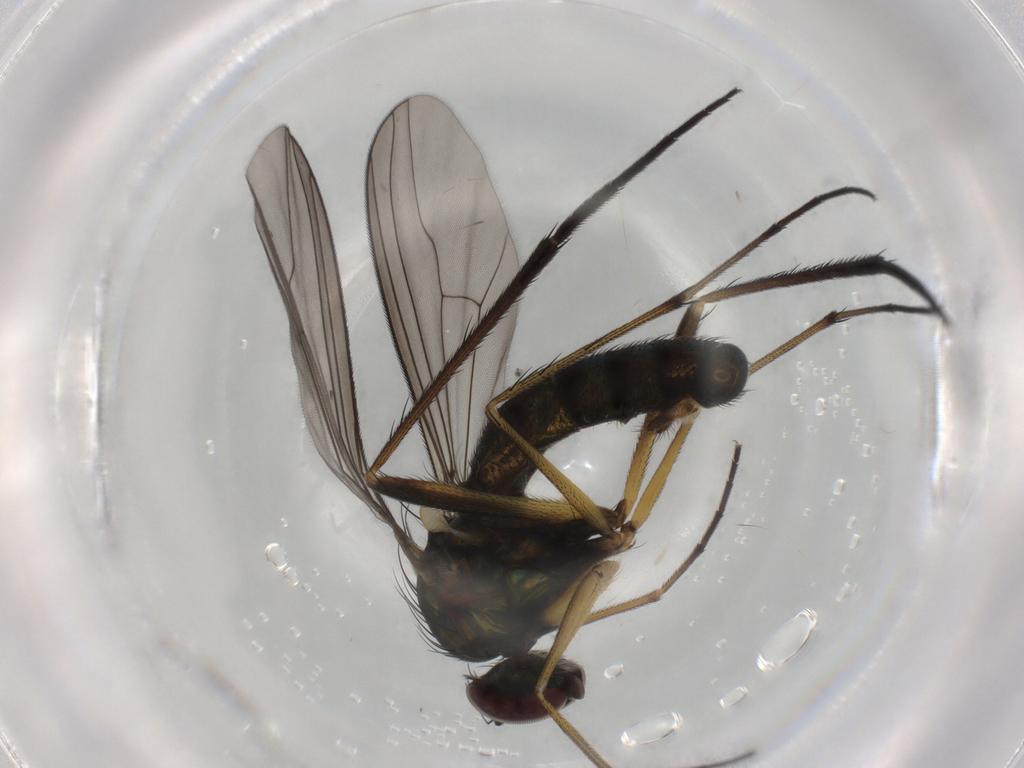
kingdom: Animalia
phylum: Arthropoda
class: Insecta
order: Diptera
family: Dolichopodidae
